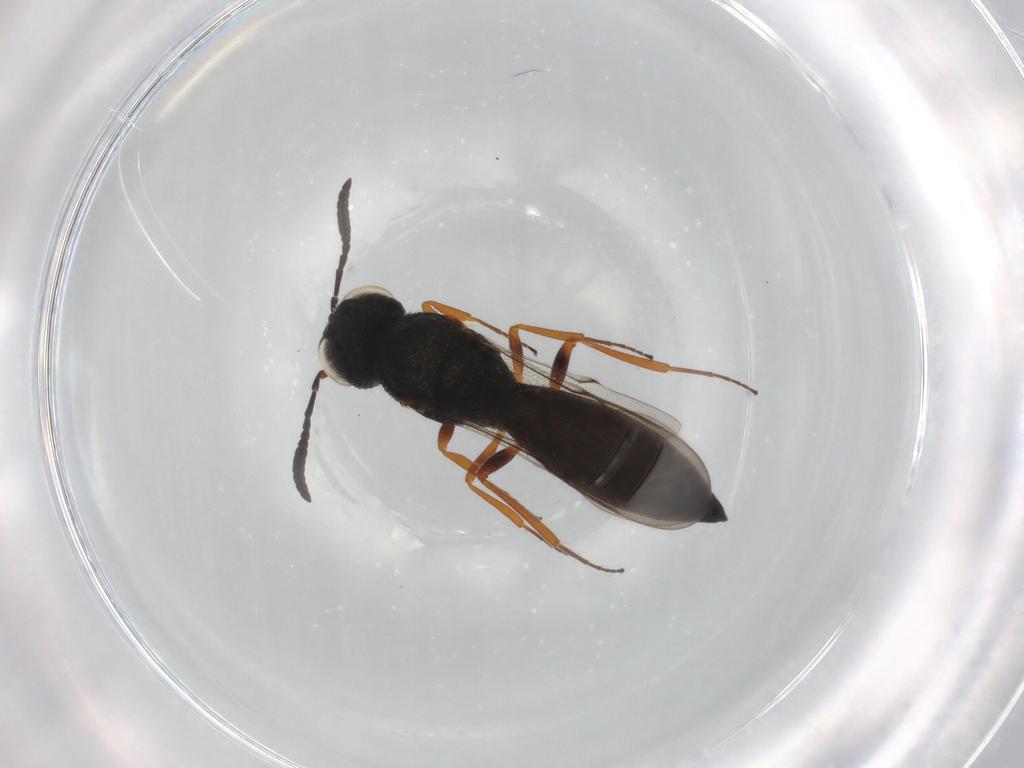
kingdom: Animalia
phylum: Arthropoda
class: Insecta
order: Hymenoptera
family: Scelionidae
